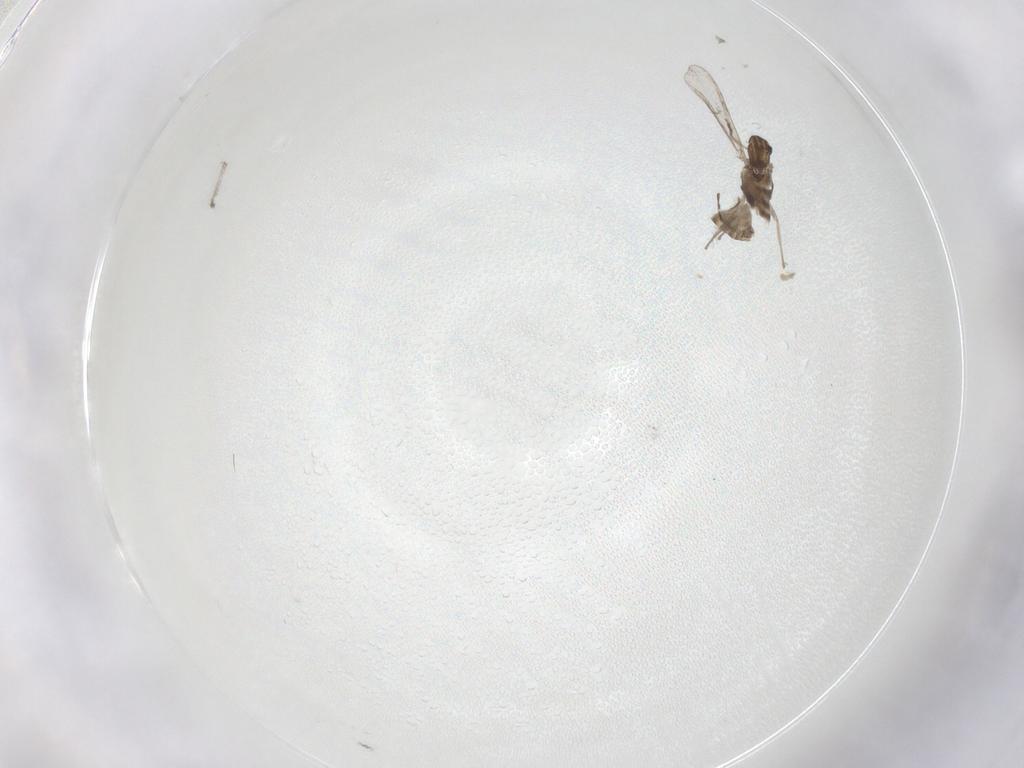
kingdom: Animalia
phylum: Arthropoda
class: Insecta
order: Diptera
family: Chironomidae
